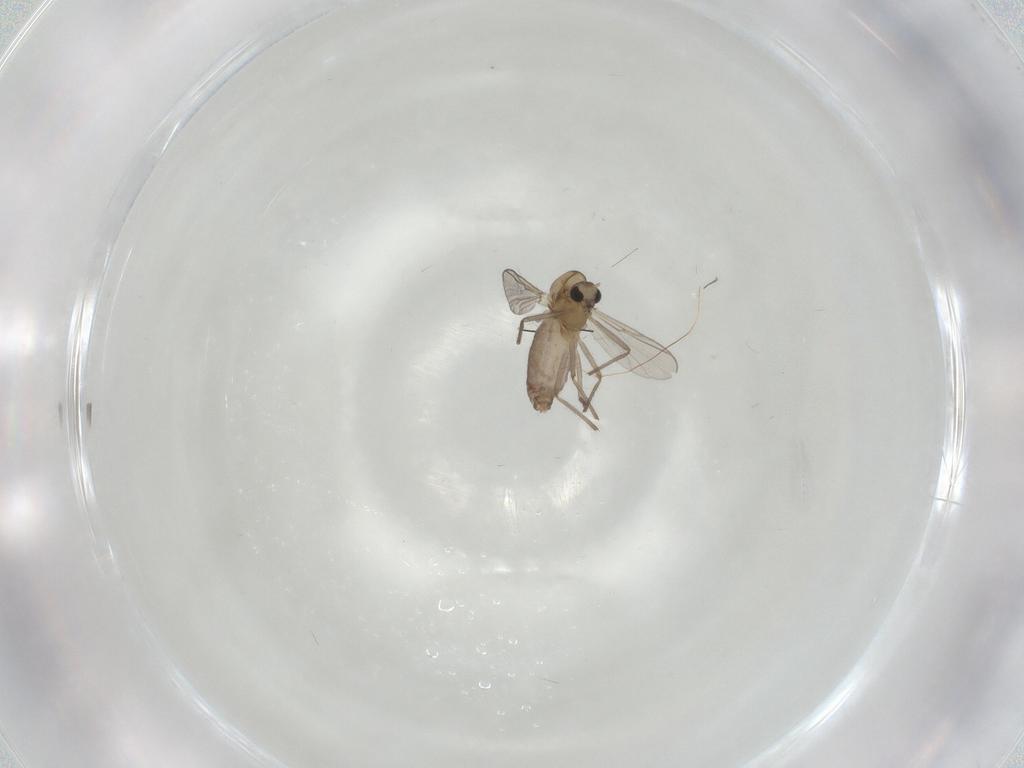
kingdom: Animalia
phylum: Arthropoda
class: Insecta
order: Diptera
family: Chironomidae
